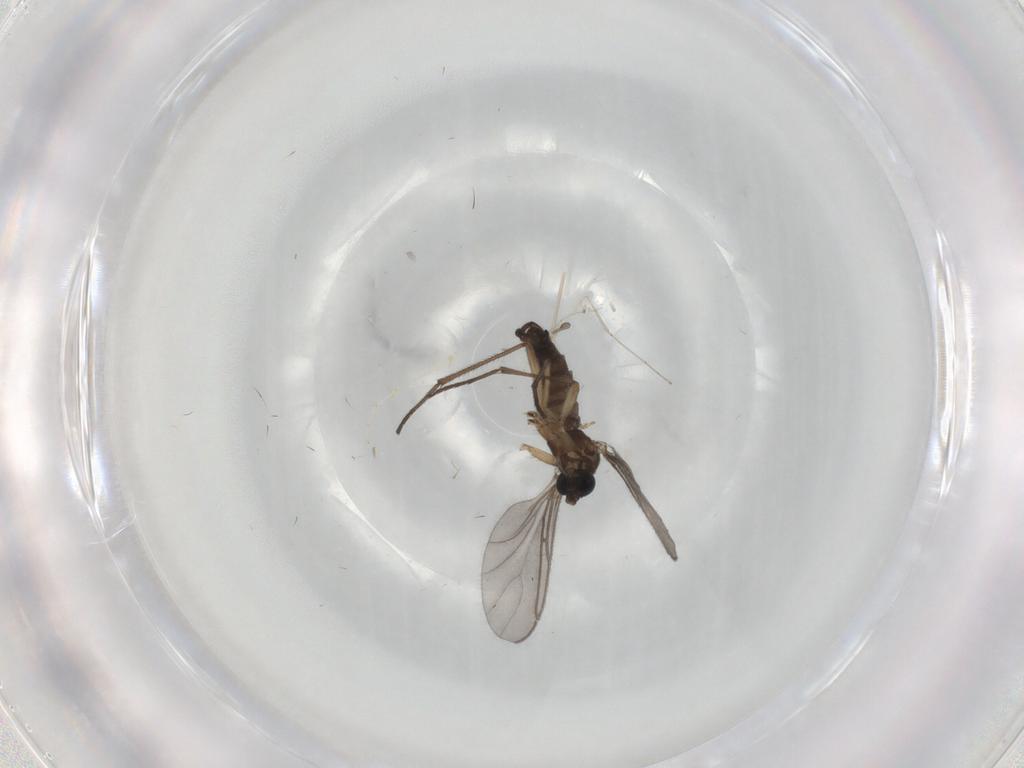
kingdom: Animalia
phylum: Arthropoda
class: Insecta
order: Diptera
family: Sciaridae
